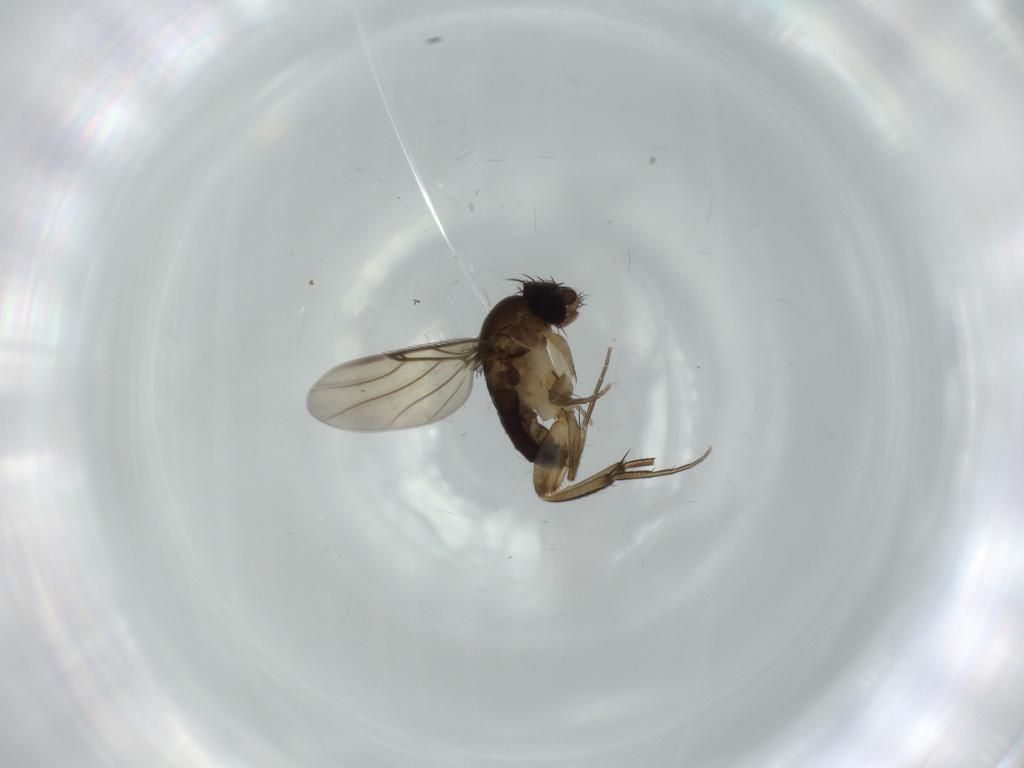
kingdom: Animalia
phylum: Arthropoda
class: Insecta
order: Diptera
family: Phoridae
